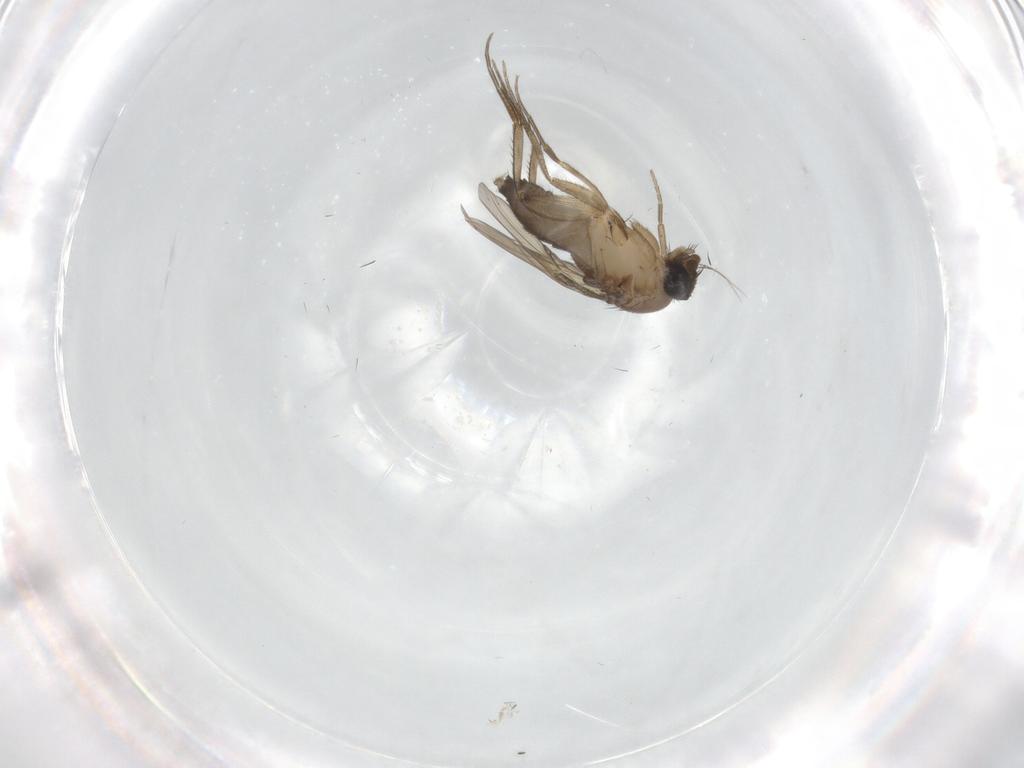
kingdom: Animalia
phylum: Arthropoda
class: Insecta
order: Diptera
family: Phoridae
